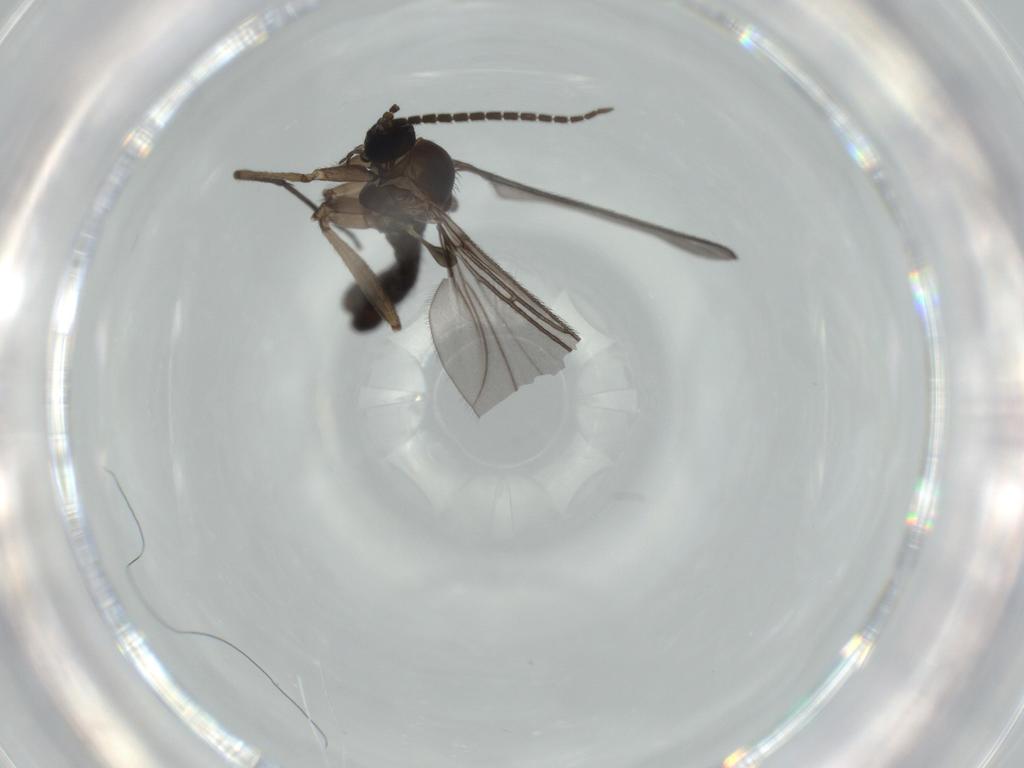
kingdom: Animalia
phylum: Arthropoda
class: Insecta
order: Diptera
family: Sciaridae
